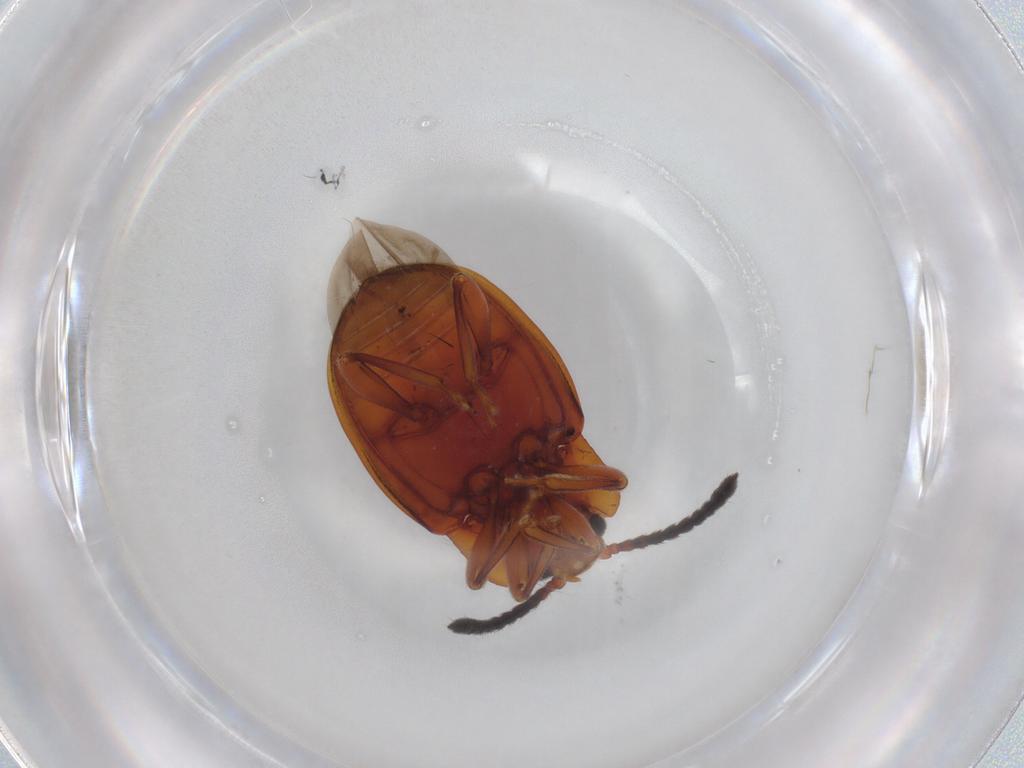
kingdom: Animalia
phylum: Arthropoda
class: Insecta
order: Coleoptera
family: Endomychidae
